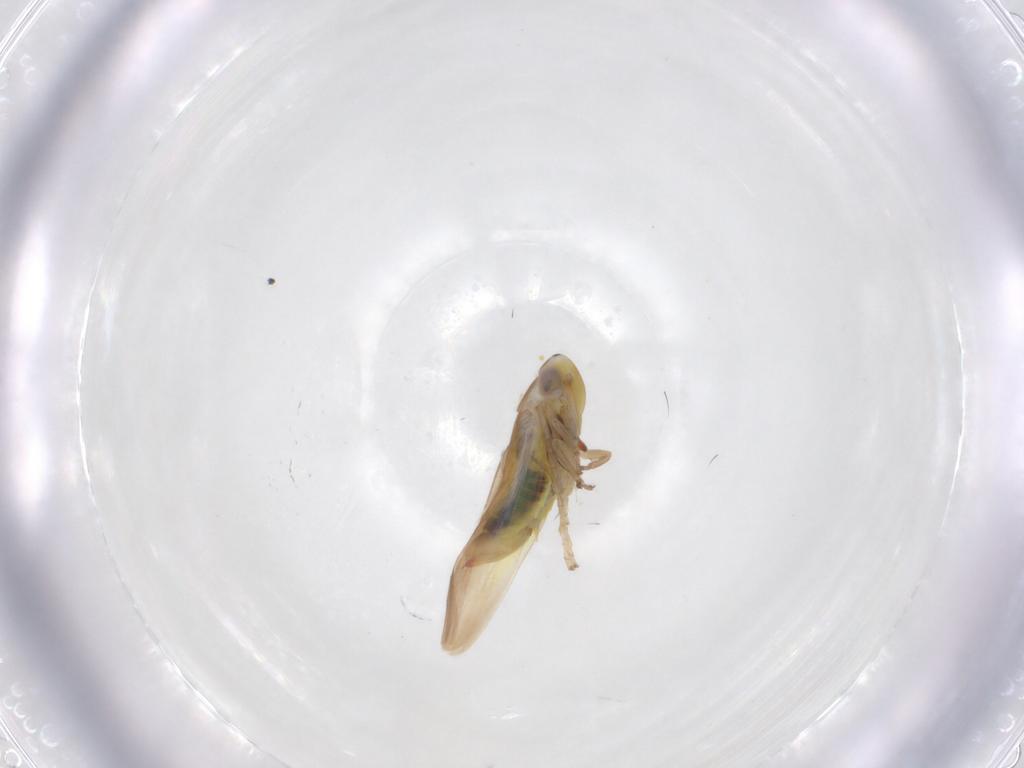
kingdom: Animalia
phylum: Arthropoda
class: Insecta
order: Hemiptera
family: Cicadellidae
